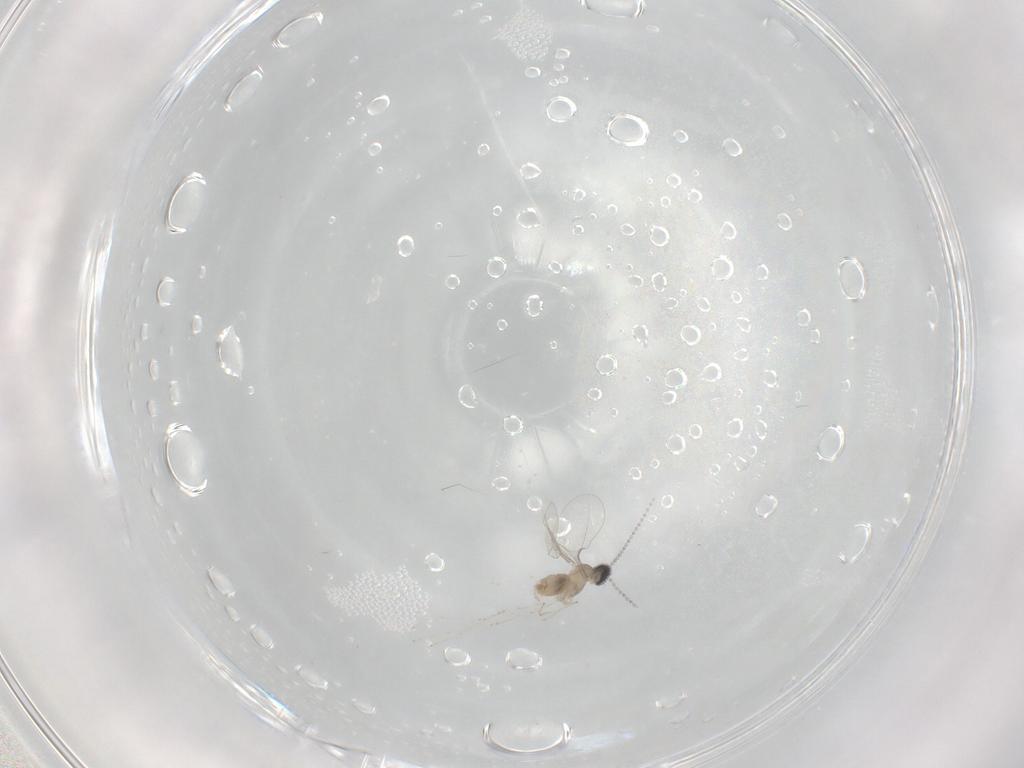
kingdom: Animalia
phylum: Arthropoda
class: Insecta
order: Diptera
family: Cecidomyiidae
